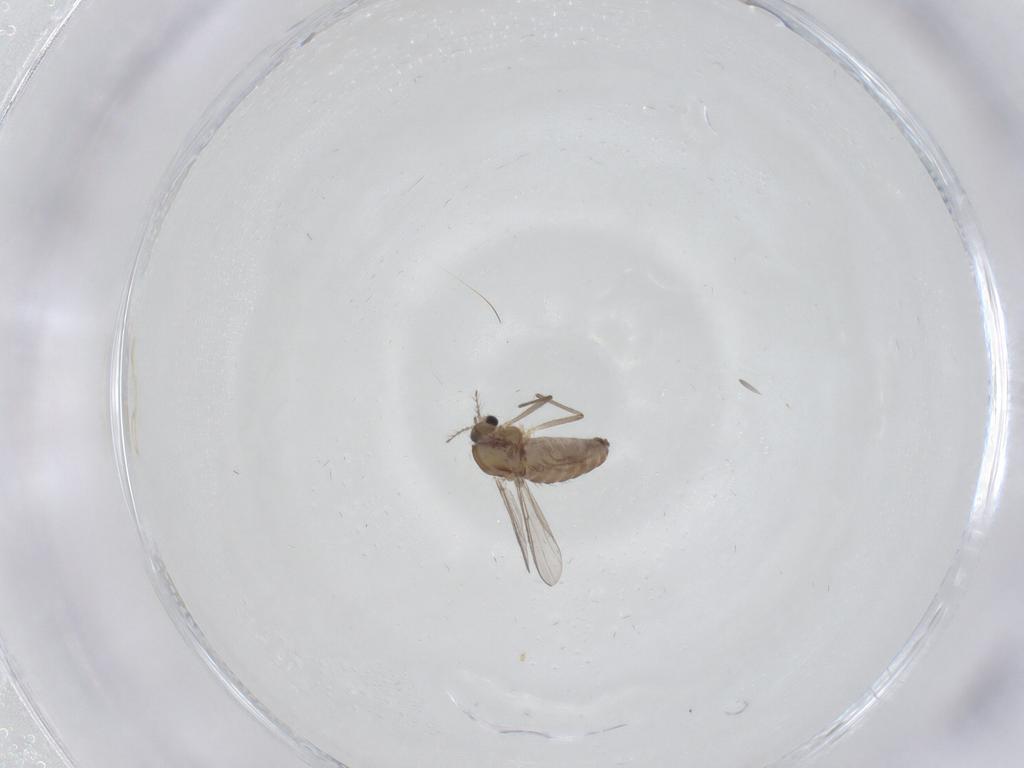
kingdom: Animalia
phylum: Arthropoda
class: Insecta
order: Diptera
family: Chironomidae
